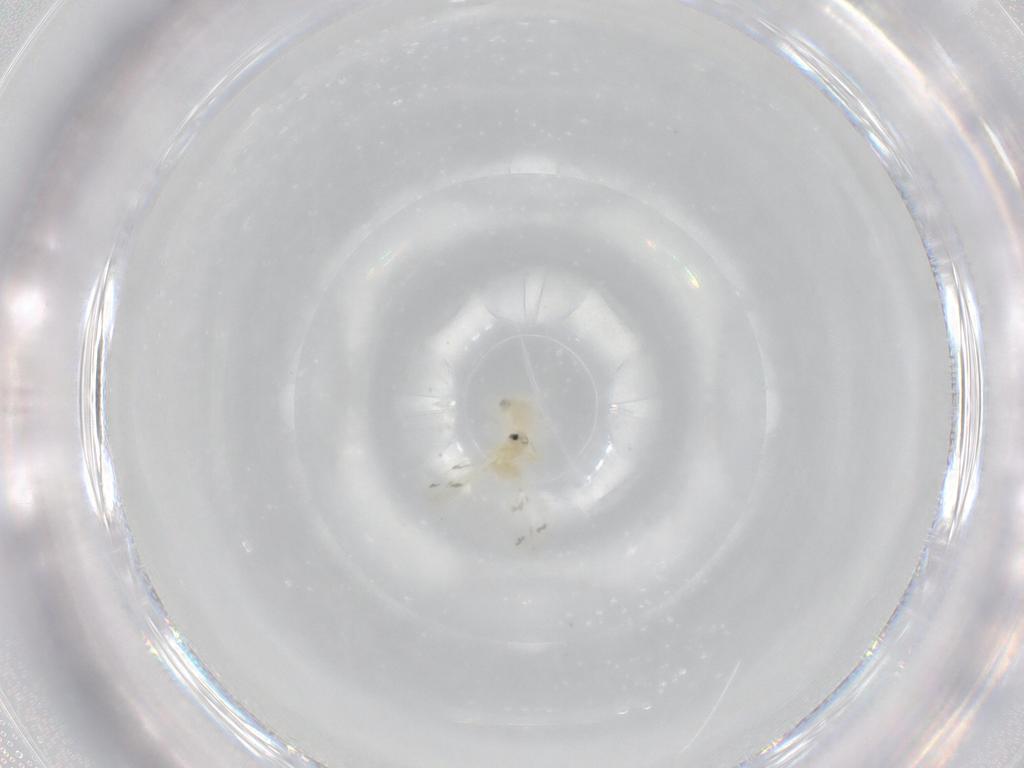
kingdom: Animalia
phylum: Arthropoda
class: Insecta
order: Hemiptera
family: Aleyrodidae
